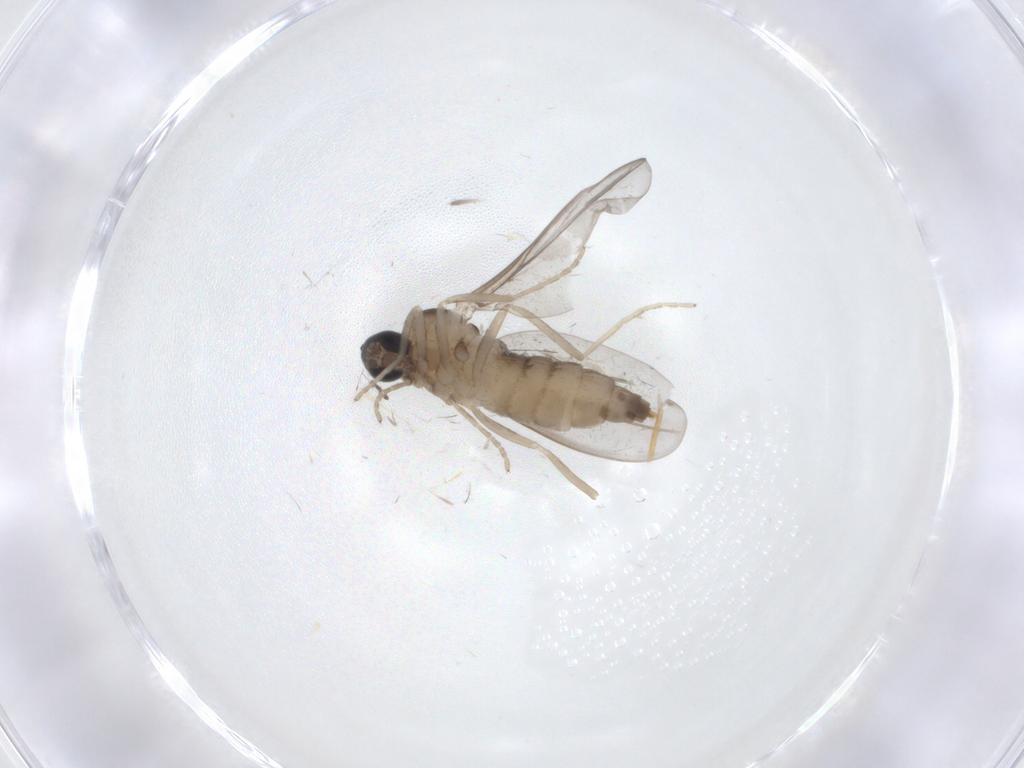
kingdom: Animalia
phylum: Arthropoda
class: Insecta
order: Diptera
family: Cecidomyiidae
